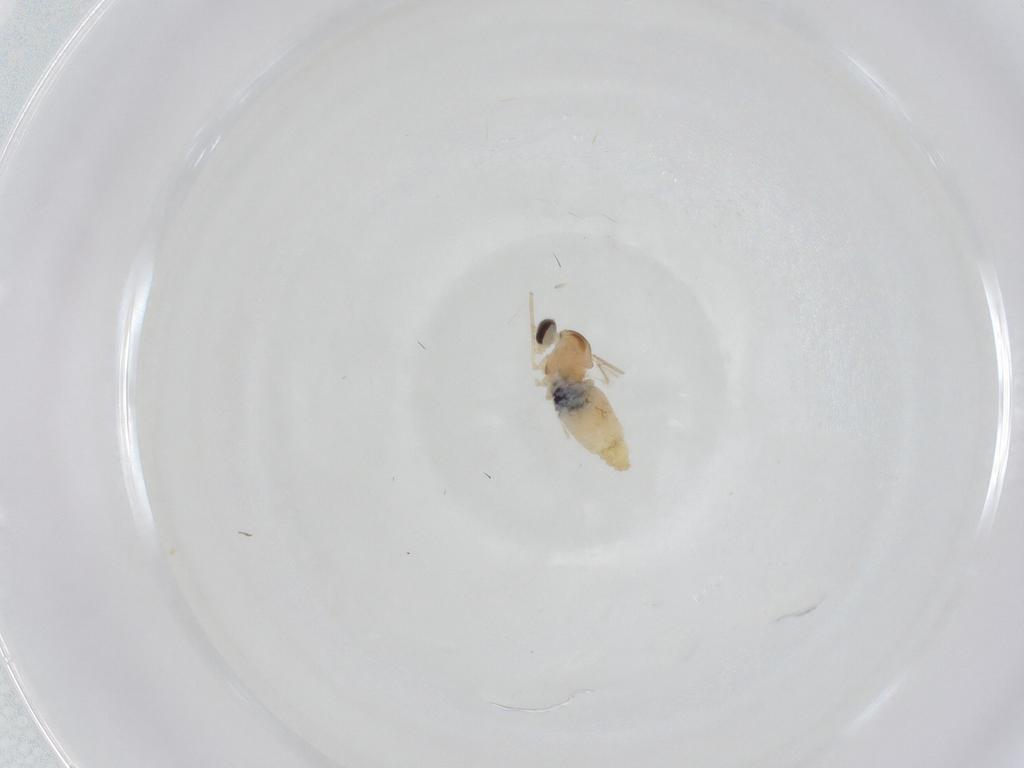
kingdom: Animalia
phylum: Arthropoda
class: Insecta
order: Diptera
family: Cecidomyiidae
